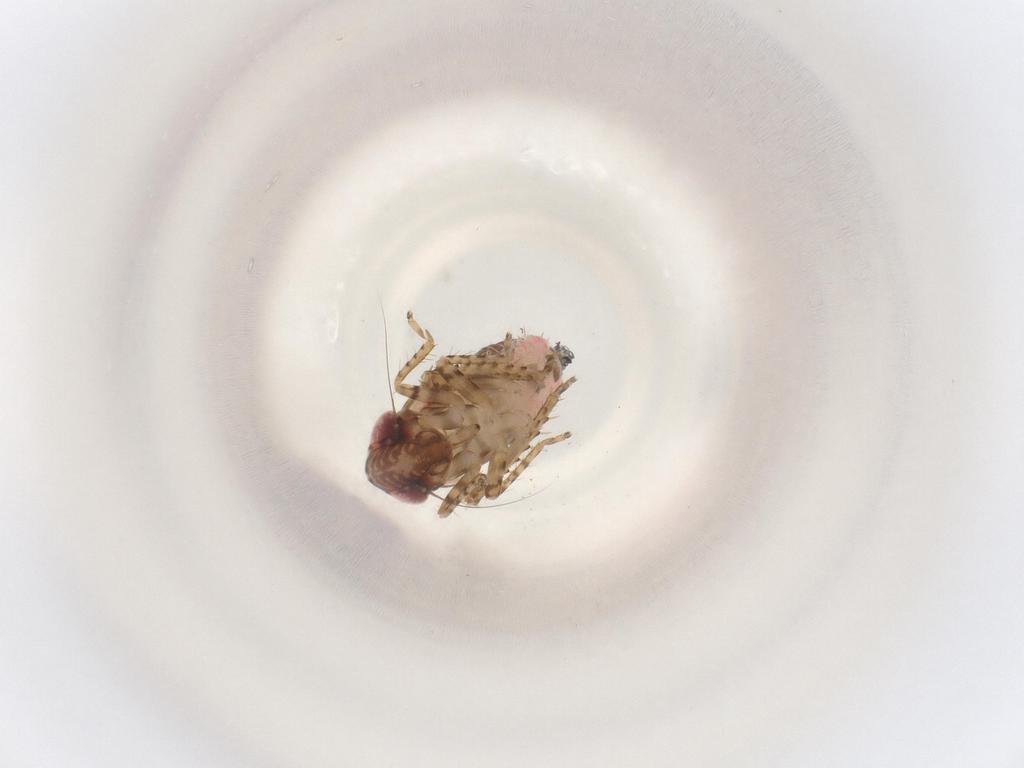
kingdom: Animalia
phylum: Arthropoda
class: Insecta
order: Hemiptera
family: Cicadellidae
